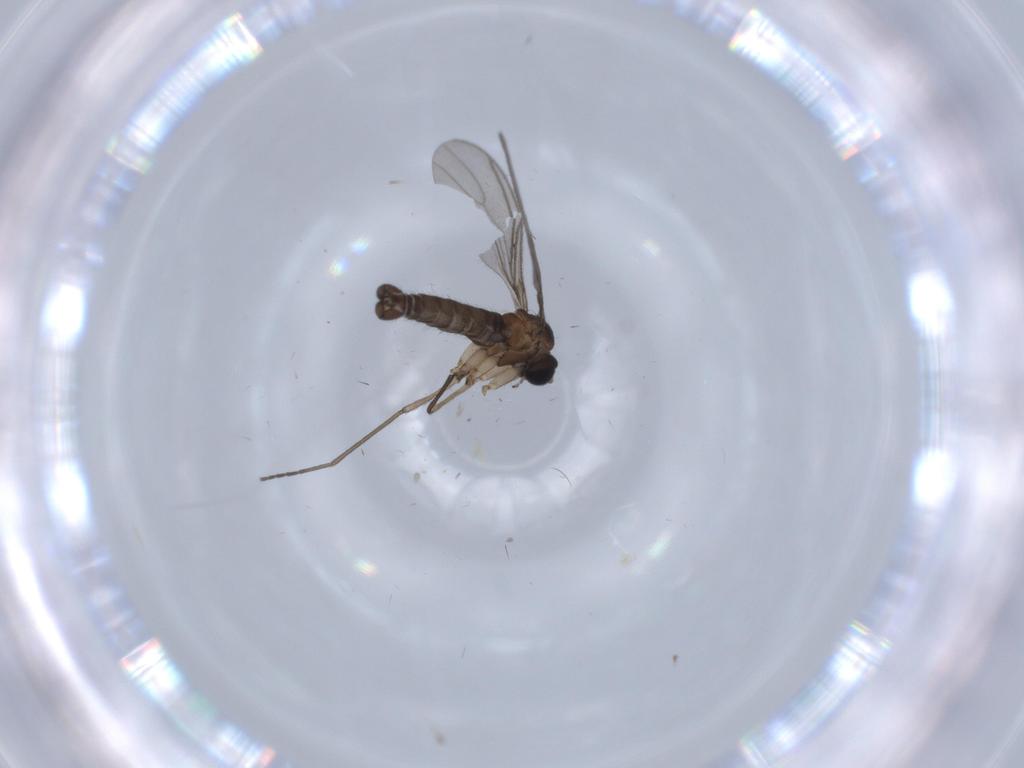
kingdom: Animalia
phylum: Arthropoda
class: Insecta
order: Diptera
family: Sciaridae
